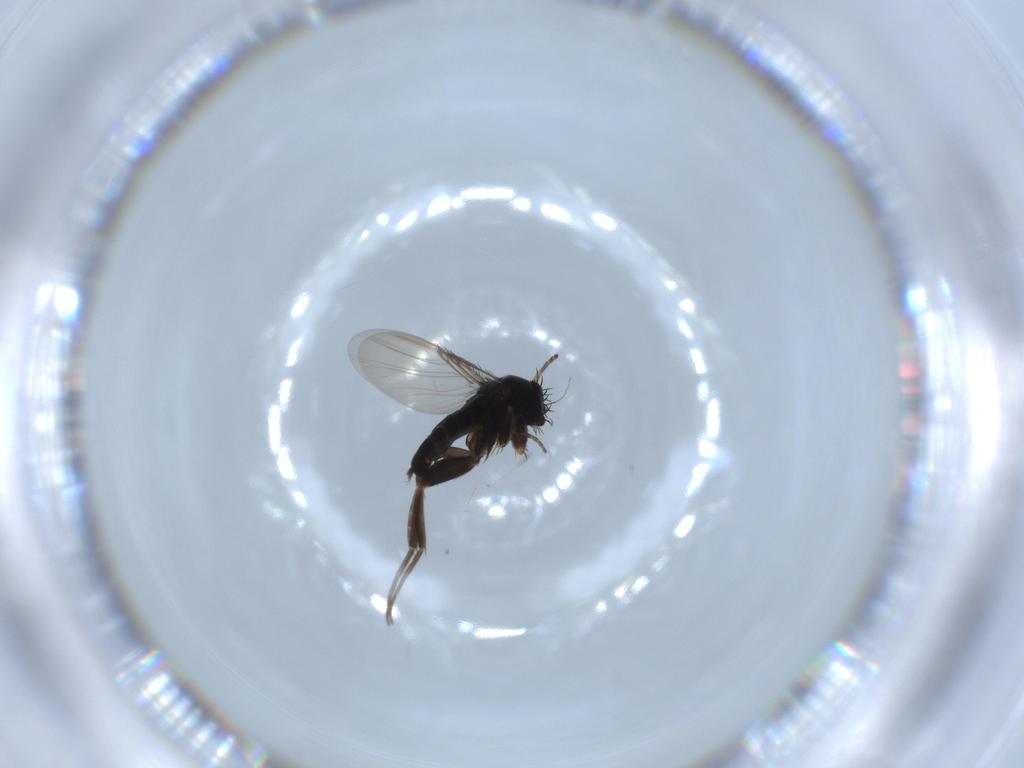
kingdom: Animalia
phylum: Arthropoda
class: Insecta
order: Diptera
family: Phoridae
